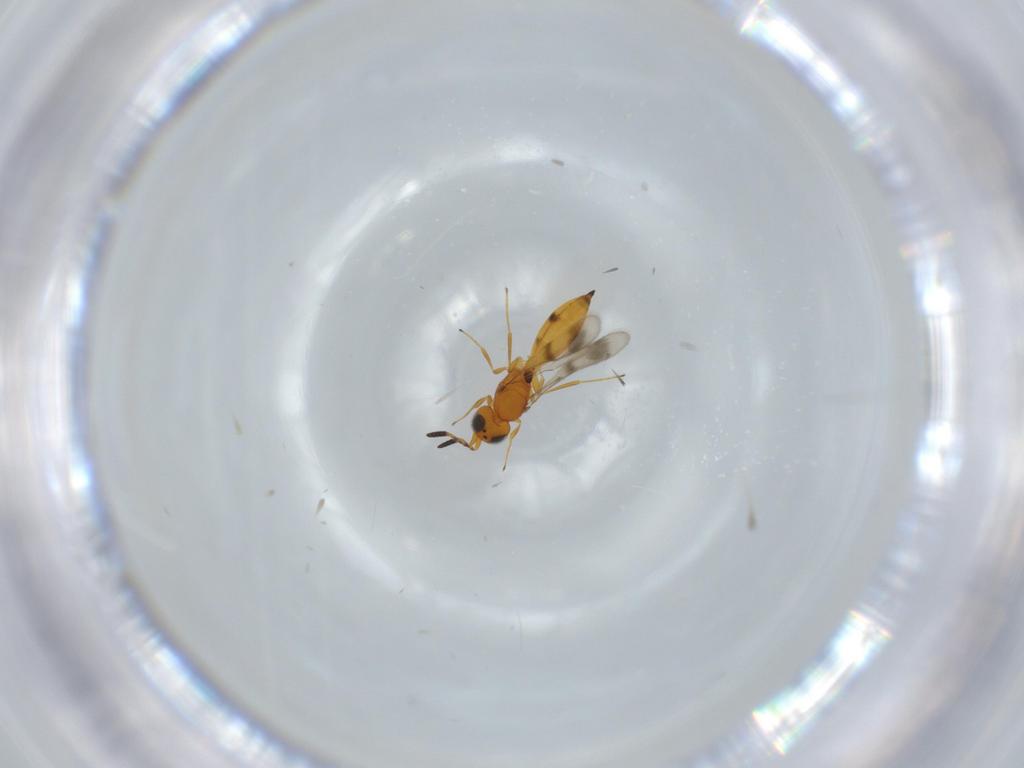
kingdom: Animalia
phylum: Arthropoda
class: Insecta
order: Hymenoptera
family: Scelionidae
